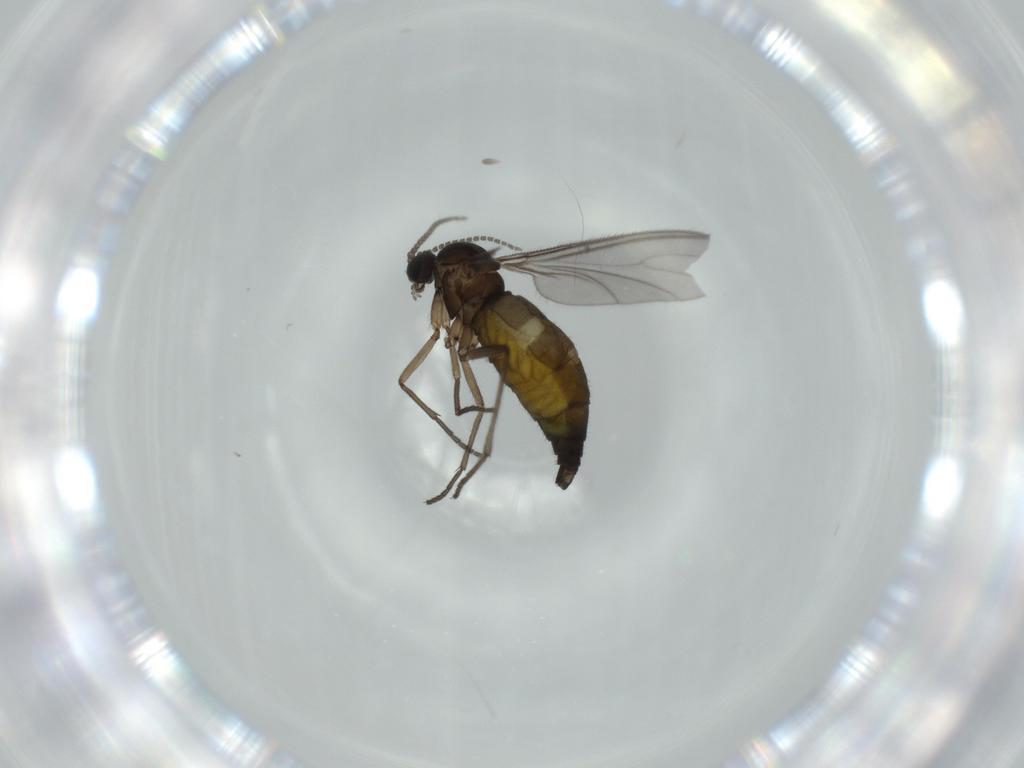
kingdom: Animalia
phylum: Arthropoda
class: Insecta
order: Diptera
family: Sciaridae
